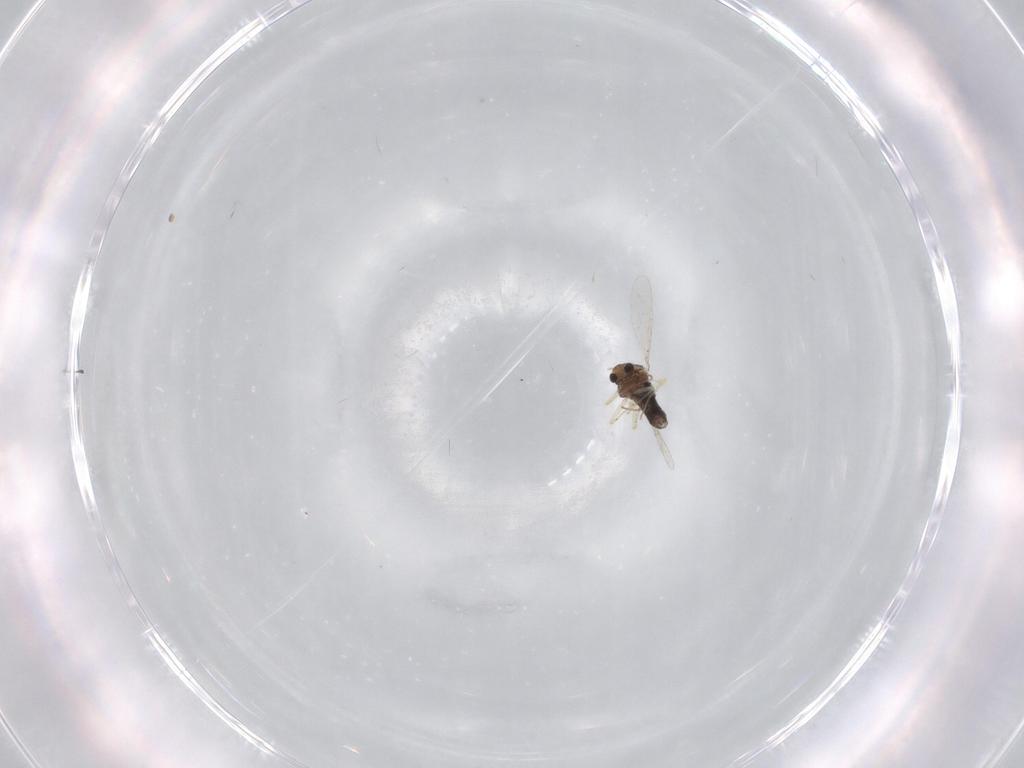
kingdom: Animalia
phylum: Arthropoda
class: Insecta
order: Diptera
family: Chironomidae
